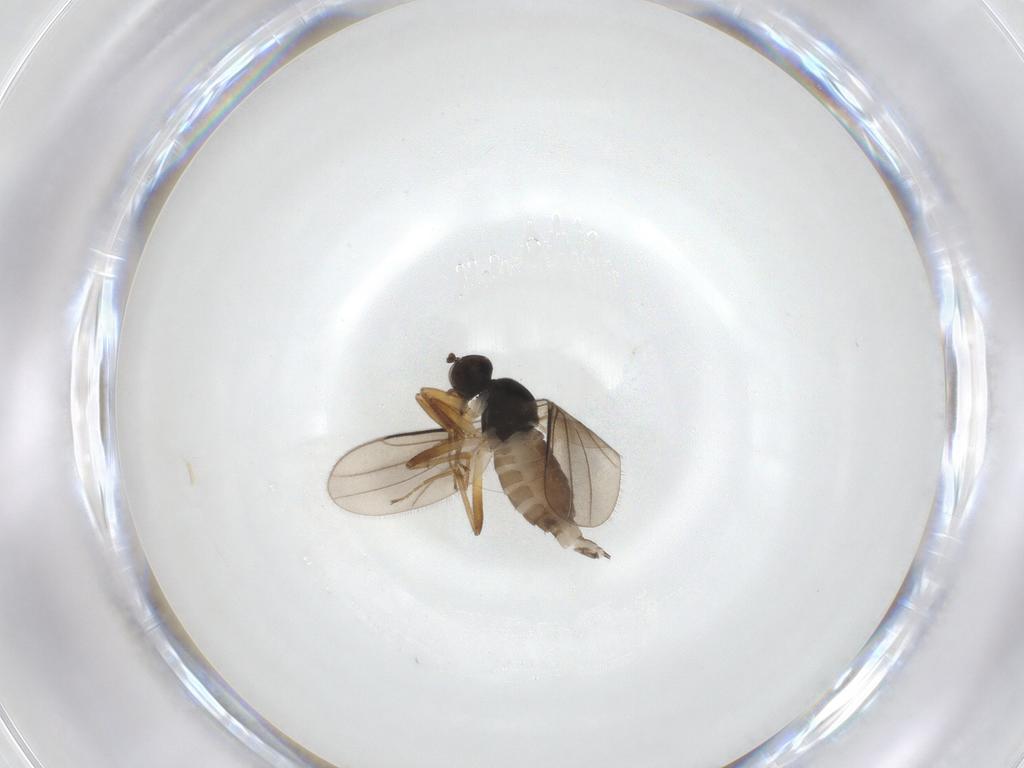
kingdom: Animalia
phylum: Arthropoda
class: Insecta
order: Diptera
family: Hybotidae
